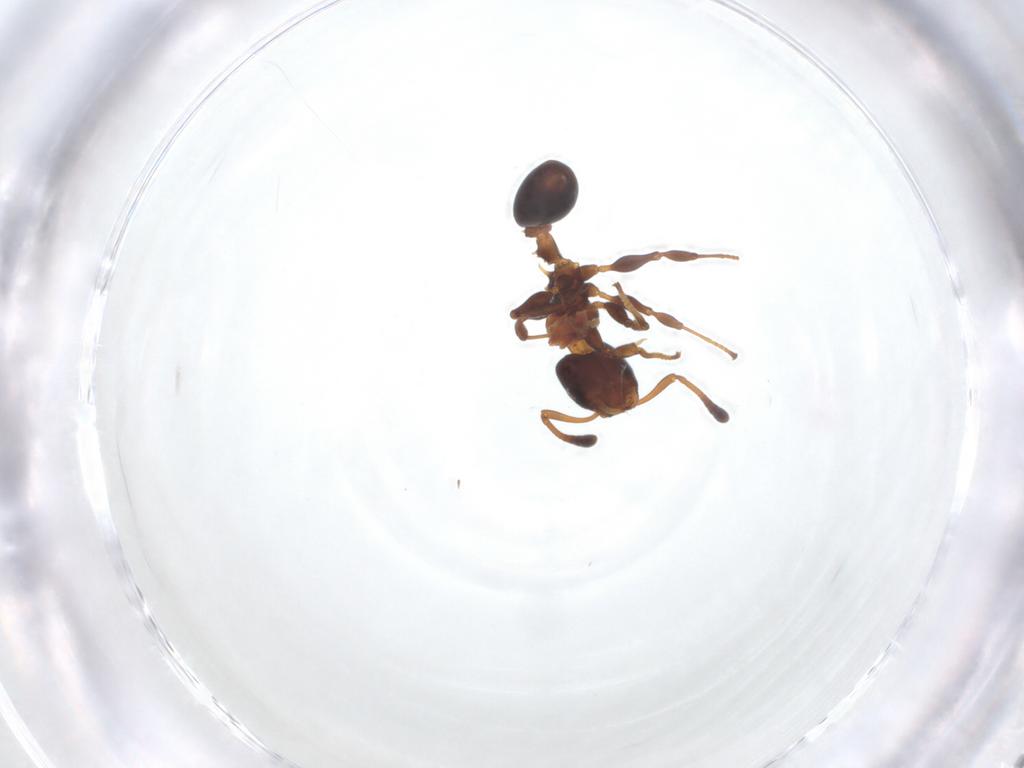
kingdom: Animalia
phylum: Arthropoda
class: Insecta
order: Hymenoptera
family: Formicidae
